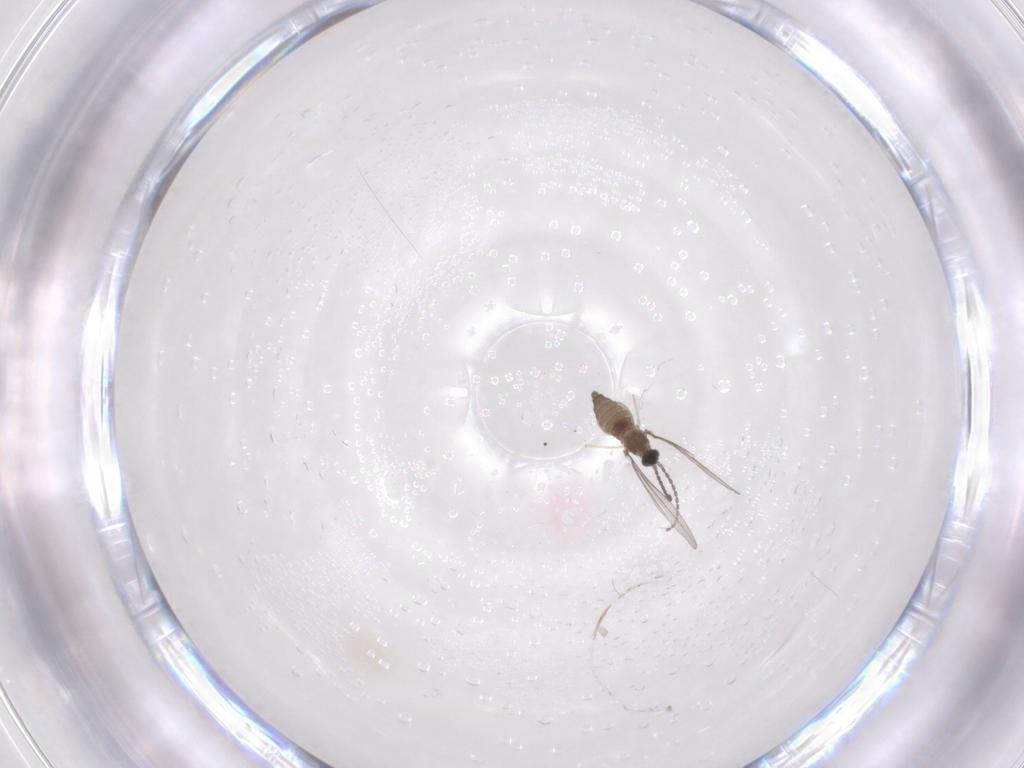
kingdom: Animalia
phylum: Arthropoda
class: Insecta
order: Diptera
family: Cecidomyiidae
